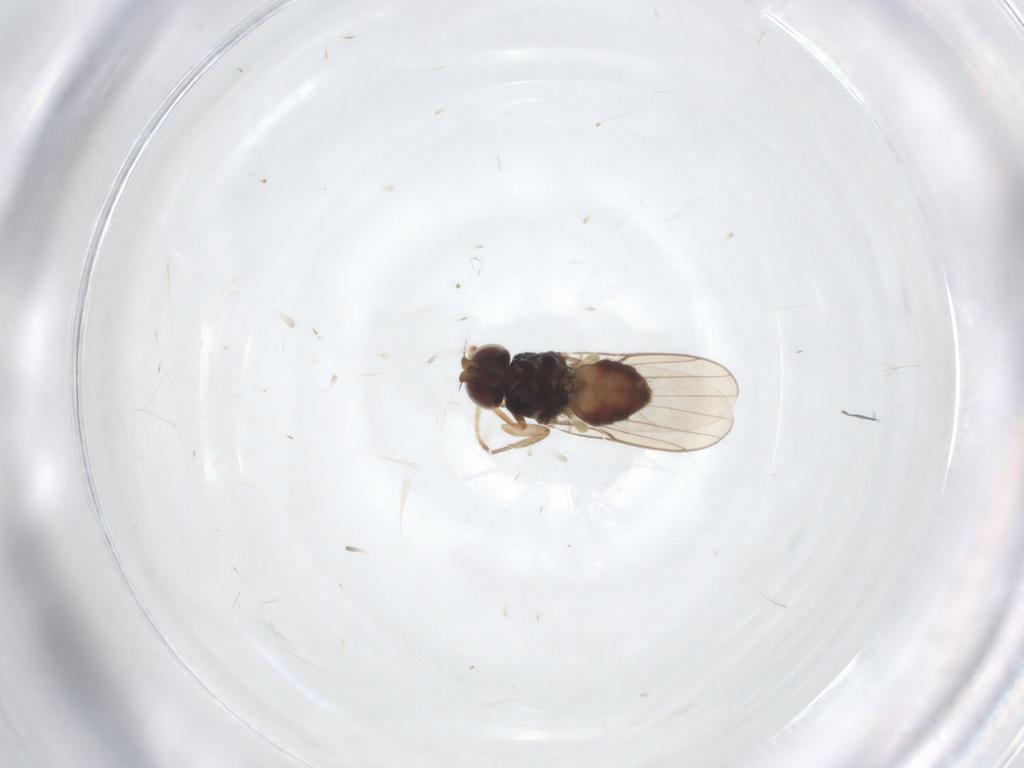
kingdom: Animalia
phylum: Arthropoda
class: Insecta
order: Diptera
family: Chloropidae
